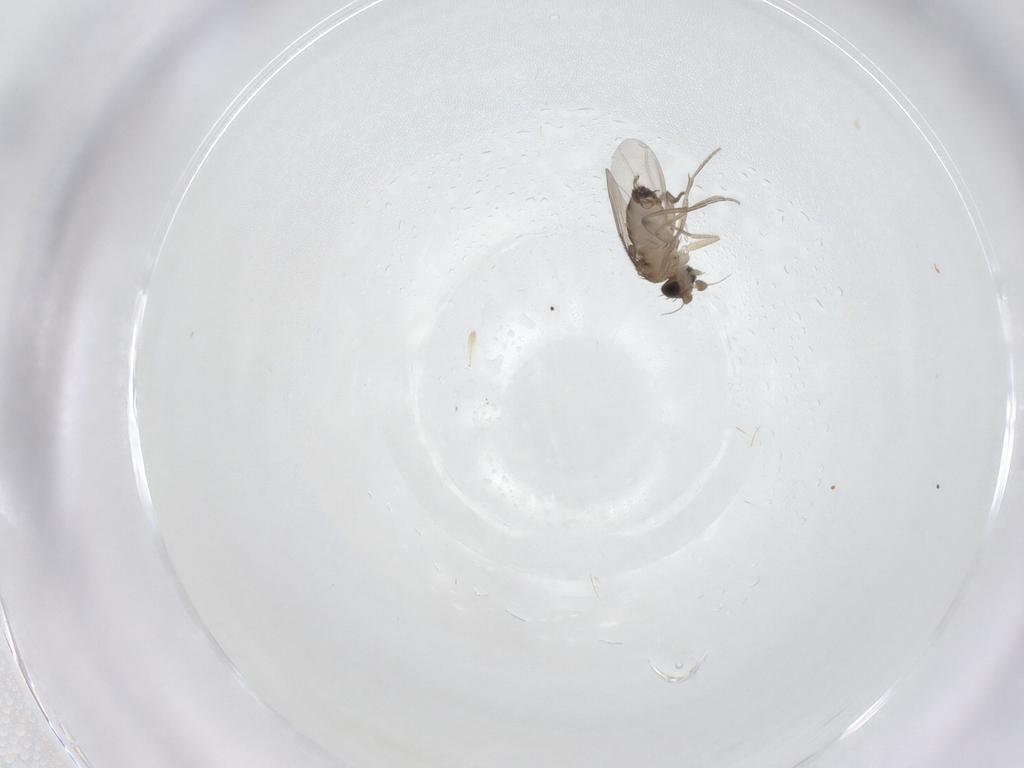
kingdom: Animalia
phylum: Arthropoda
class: Insecta
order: Diptera
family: Phoridae
